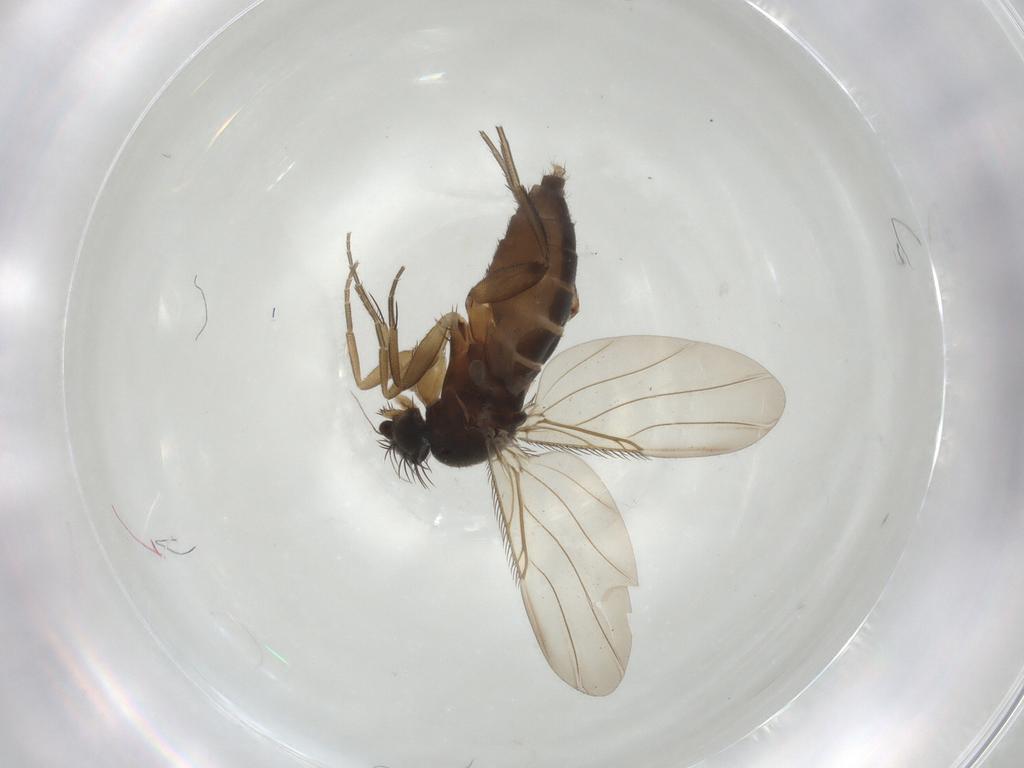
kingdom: Animalia
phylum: Arthropoda
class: Insecta
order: Diptera
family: Phoridae
